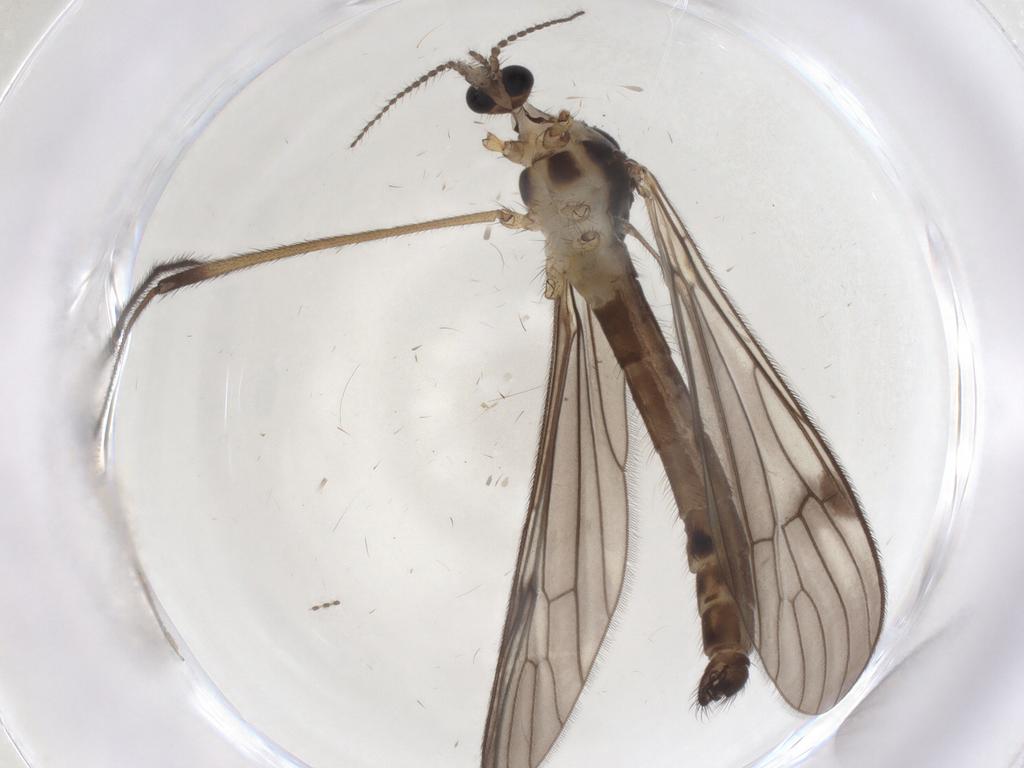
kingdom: Animalia
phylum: Arthropoda
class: Insecta
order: Diptera
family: Limoniidae
